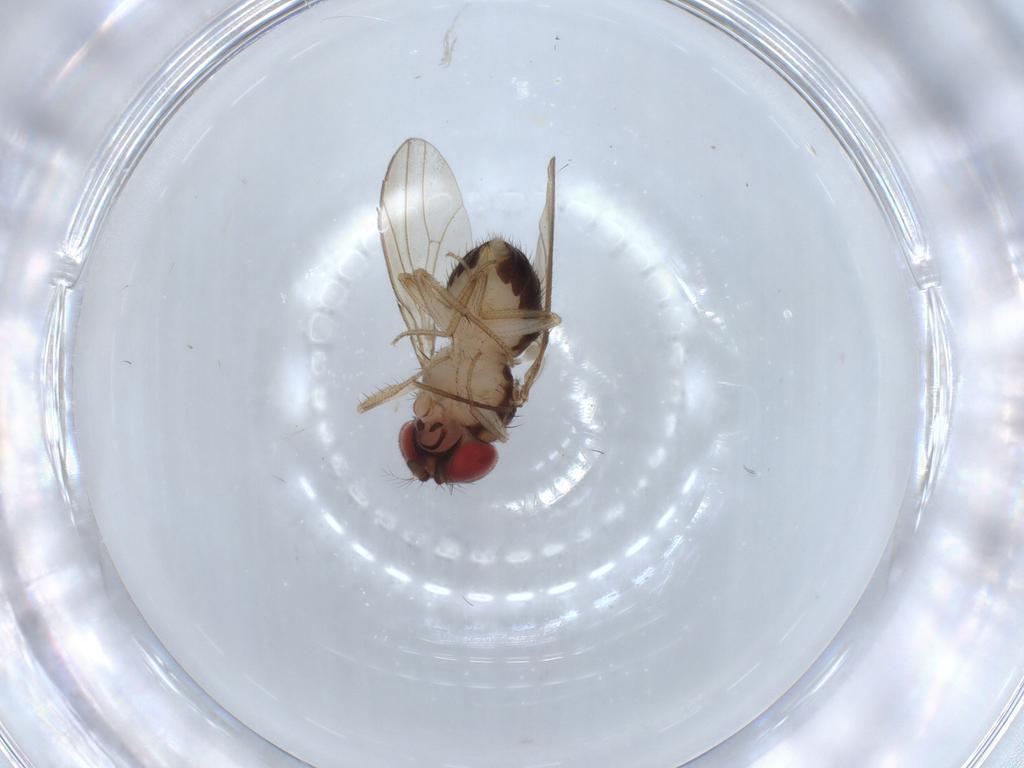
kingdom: Animalia
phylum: Arthropoda
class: Insecta
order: Diptera
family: Drosophilidae
